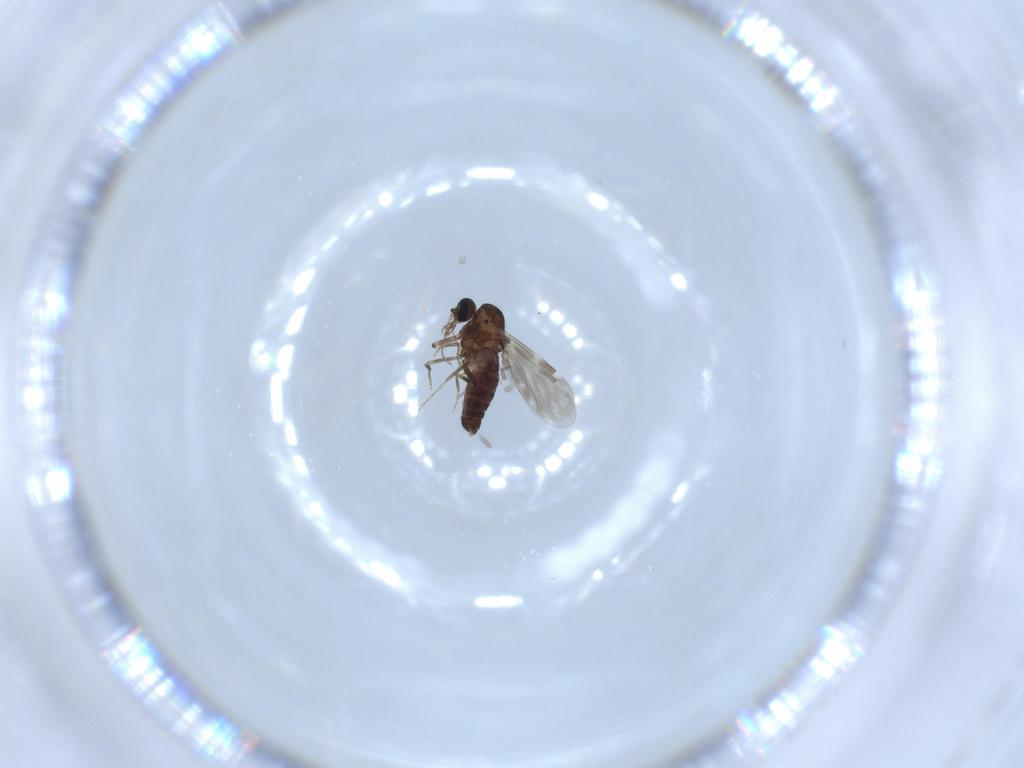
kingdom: Animalia
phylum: Arthropoda
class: Insecta
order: Diptera
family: Ceratopogonidae
